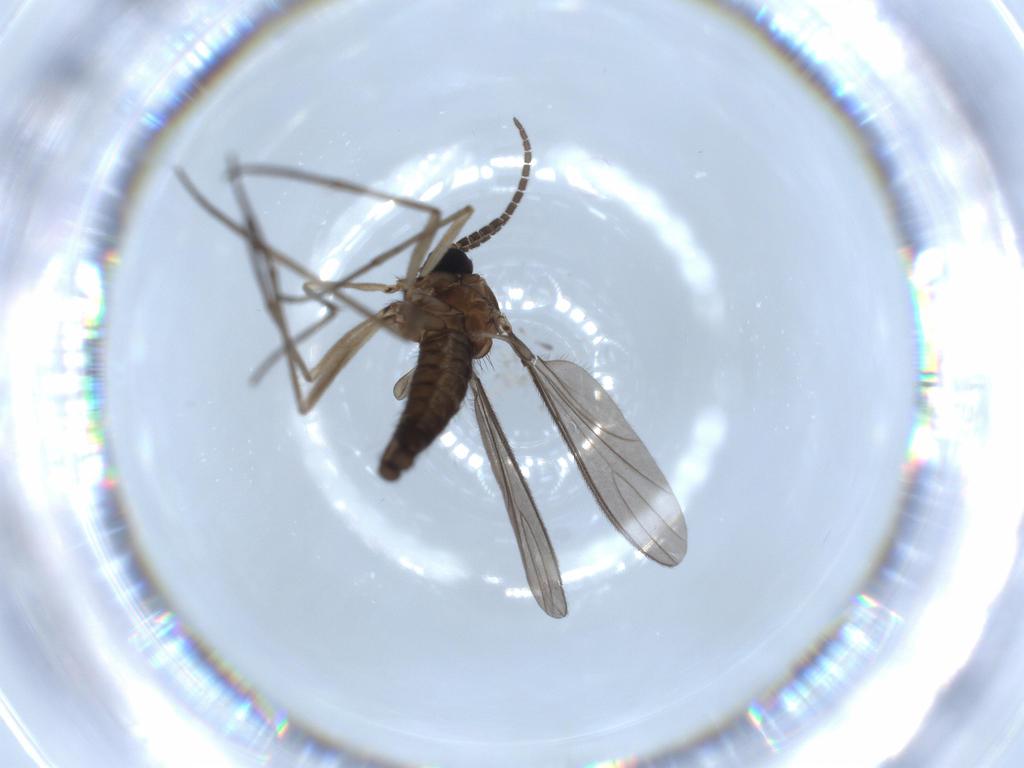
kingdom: Animalia
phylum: Arthropoda
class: Insecta
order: Diptera
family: Sciaridae
